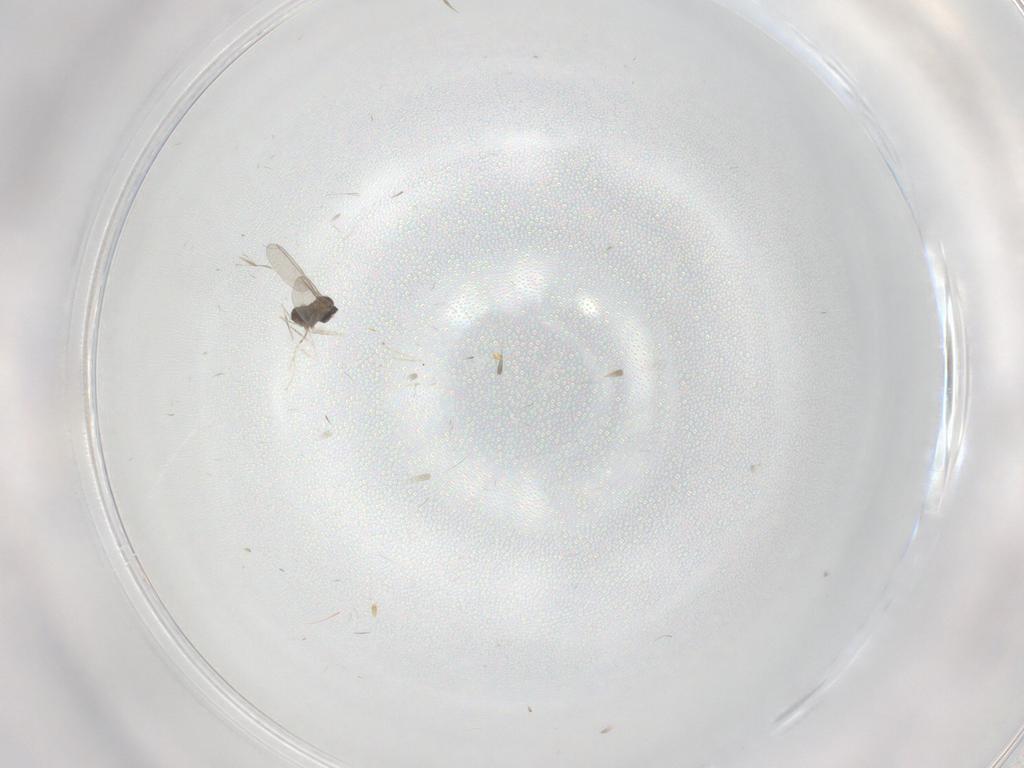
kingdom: Animalia
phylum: Arthropoda
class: Insecta
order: Diptera
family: Cecidomyiidae
